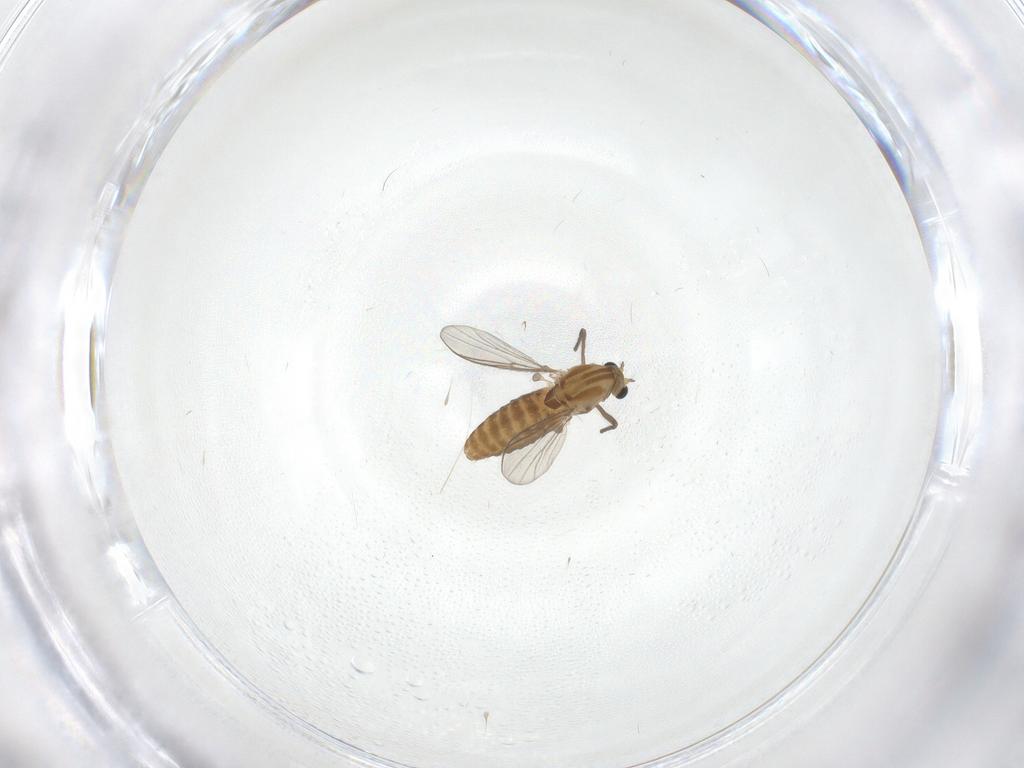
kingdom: Animalia
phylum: Arthropoda
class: Insecta
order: Diptera
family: Chironomidae
